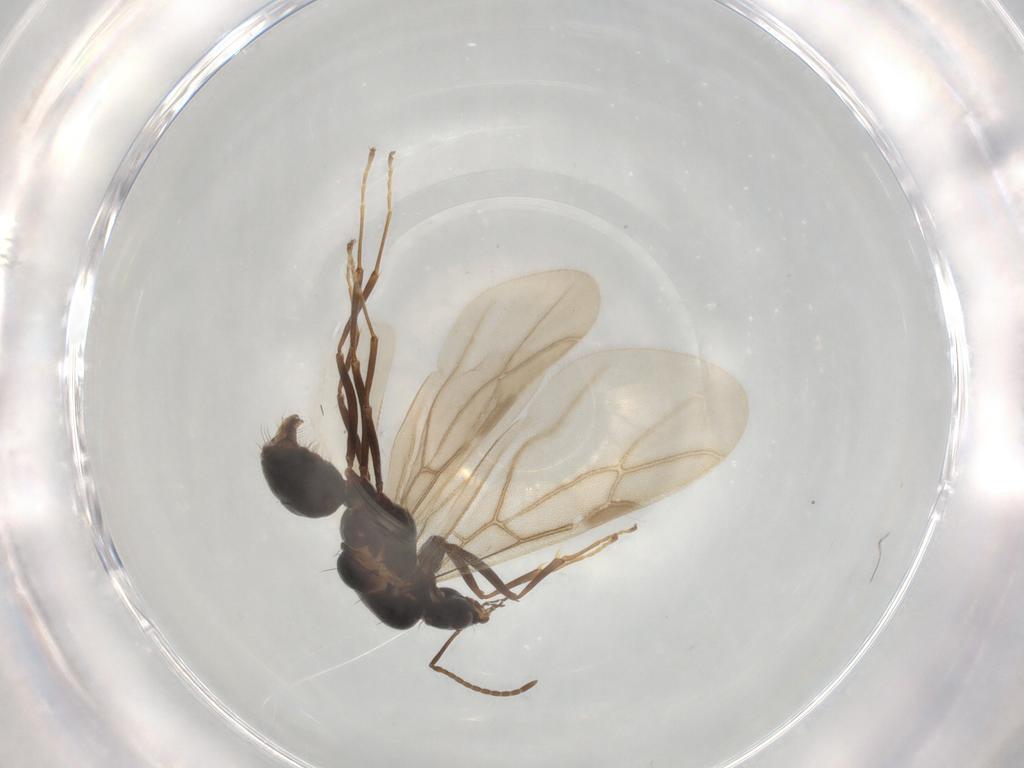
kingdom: Animalia
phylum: Arthropoda
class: Insecta
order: Hymenoptera
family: Formicidae
